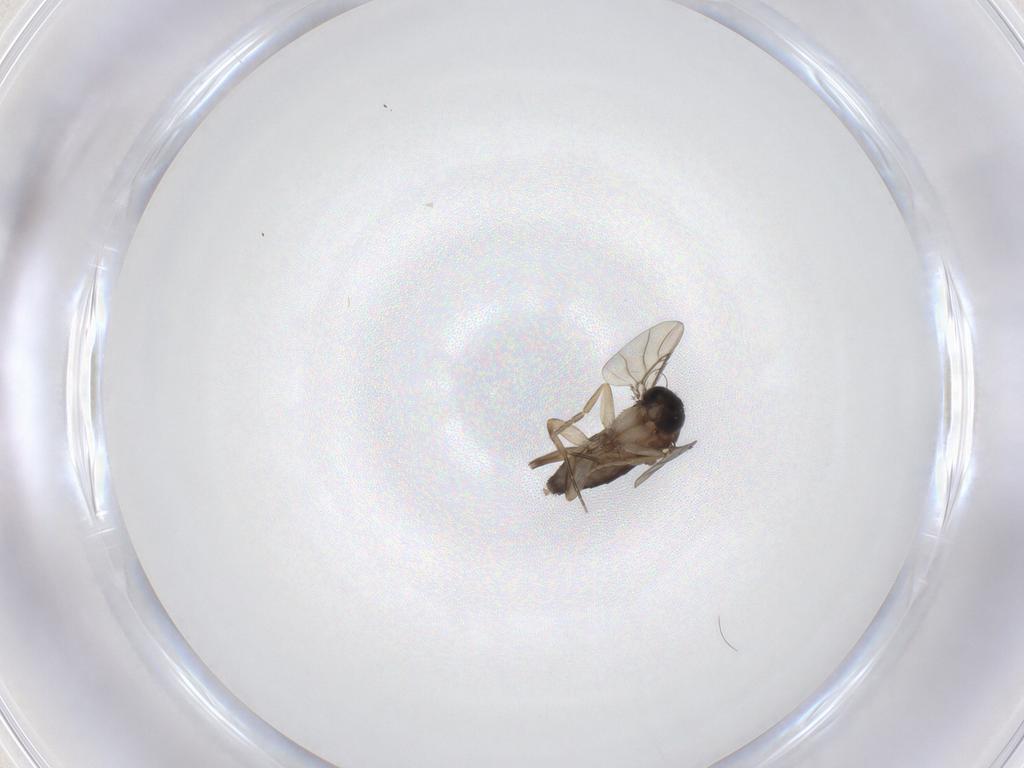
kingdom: Animalia
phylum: Arthropoda
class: Insecta
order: Diptera
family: Phoridae
